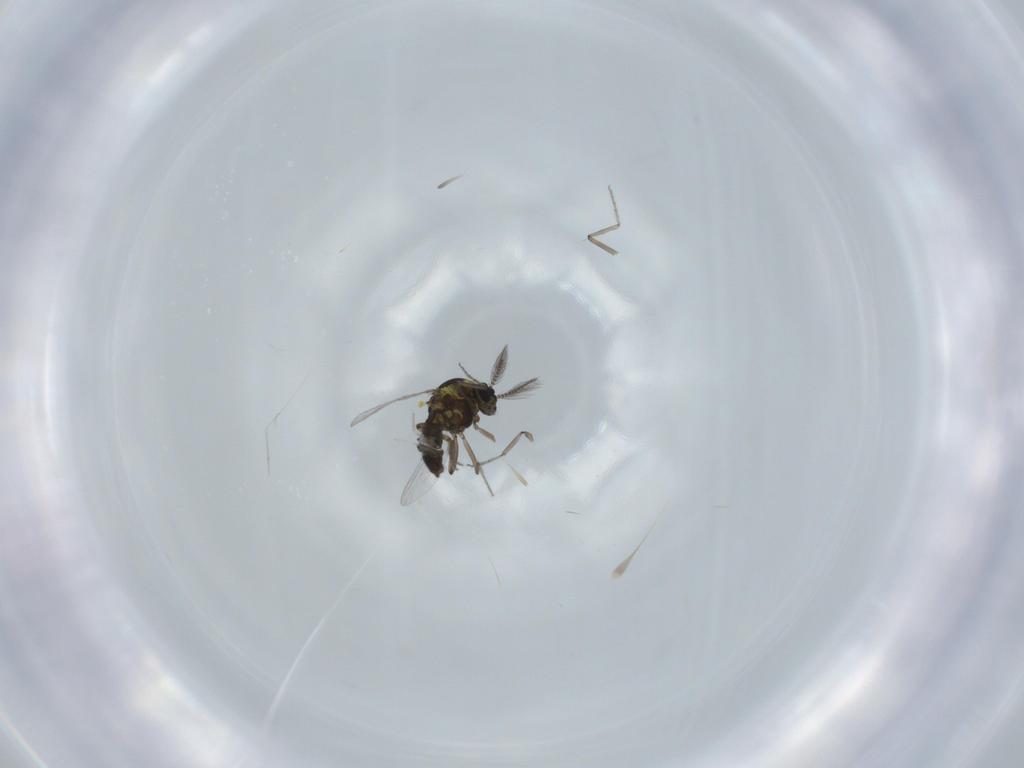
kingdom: Animalia
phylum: Arthropoda
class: Insecta
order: Diptera
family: Ceratopogonidae
